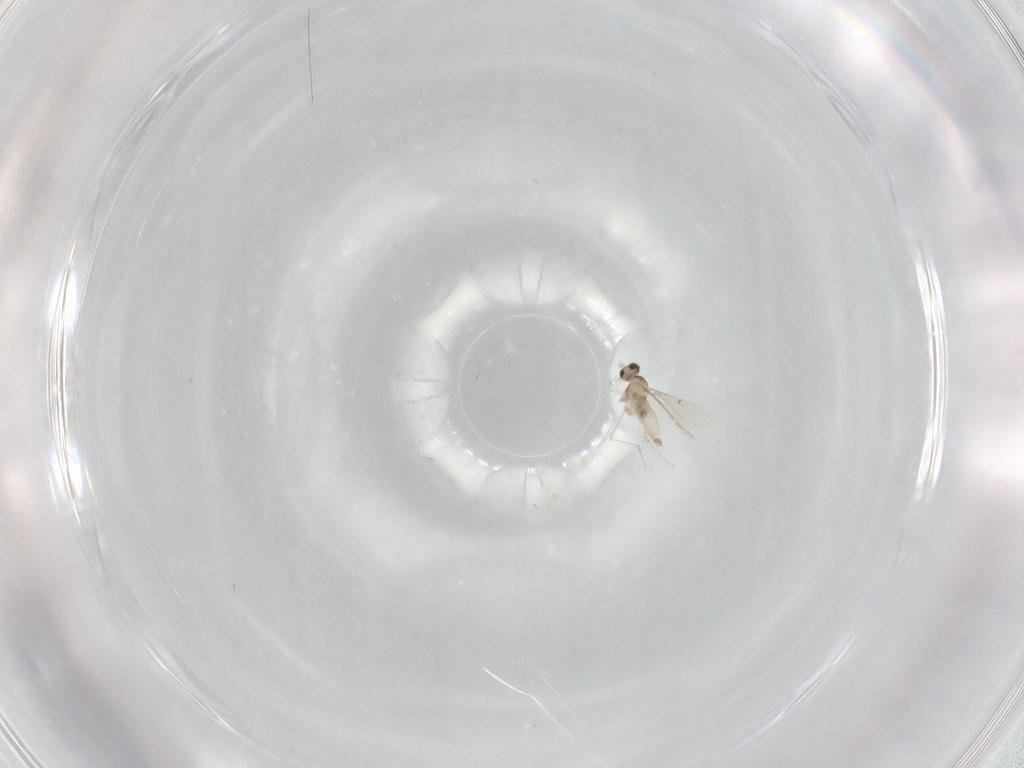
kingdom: Animalia
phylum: Arthropoda
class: Insecta
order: Diptera
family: Cecidomyiidae
